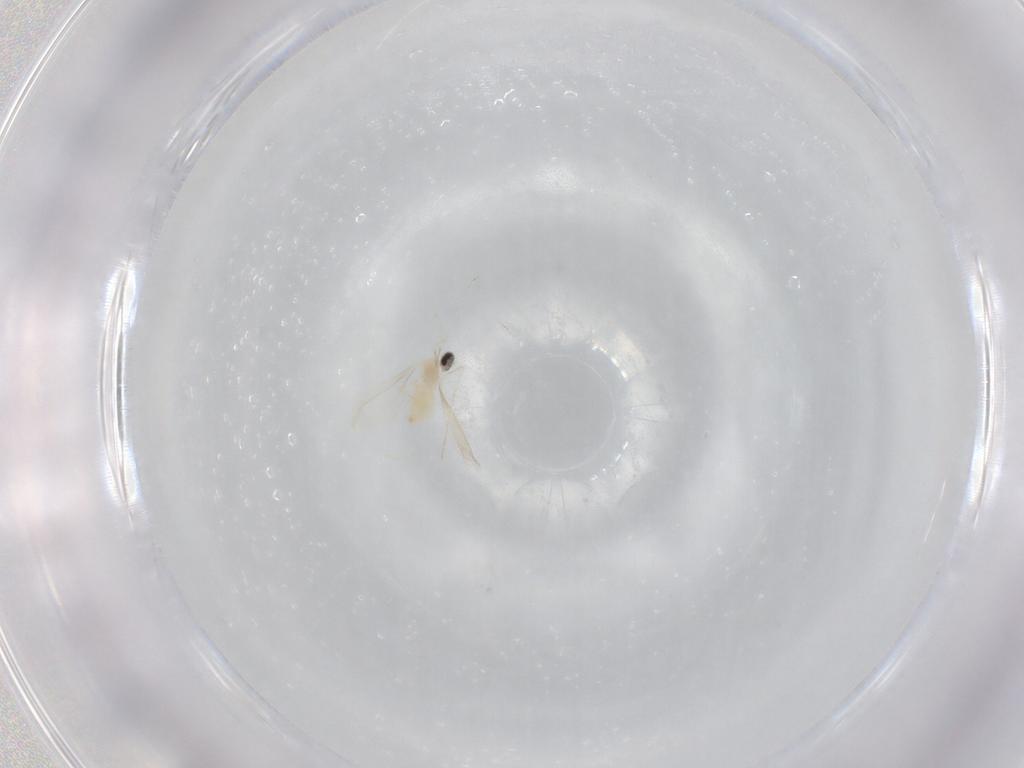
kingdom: Animalia
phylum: Arthropoda
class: Insecta
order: Diptera
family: Cecidomyiidae
